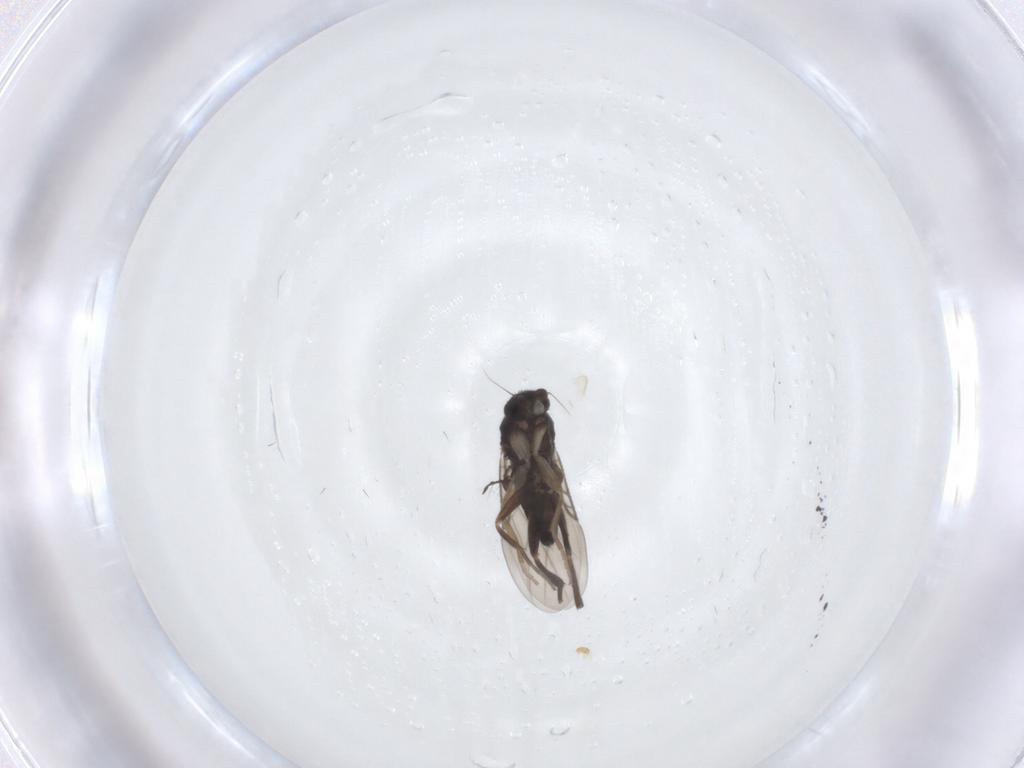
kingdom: Animalia
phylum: Arthropoda
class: Insecta
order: Diptera
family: Phoridae
